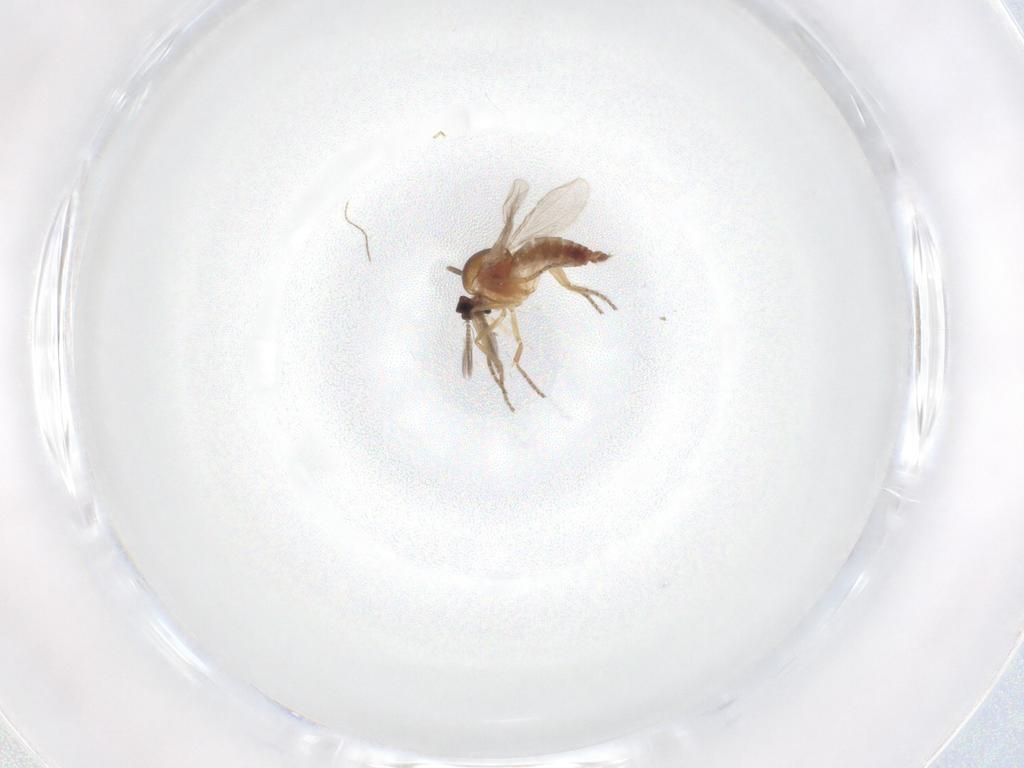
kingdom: Animalia
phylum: Arthropoda
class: Insecta
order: Diptera
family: Ceratopogonidae
